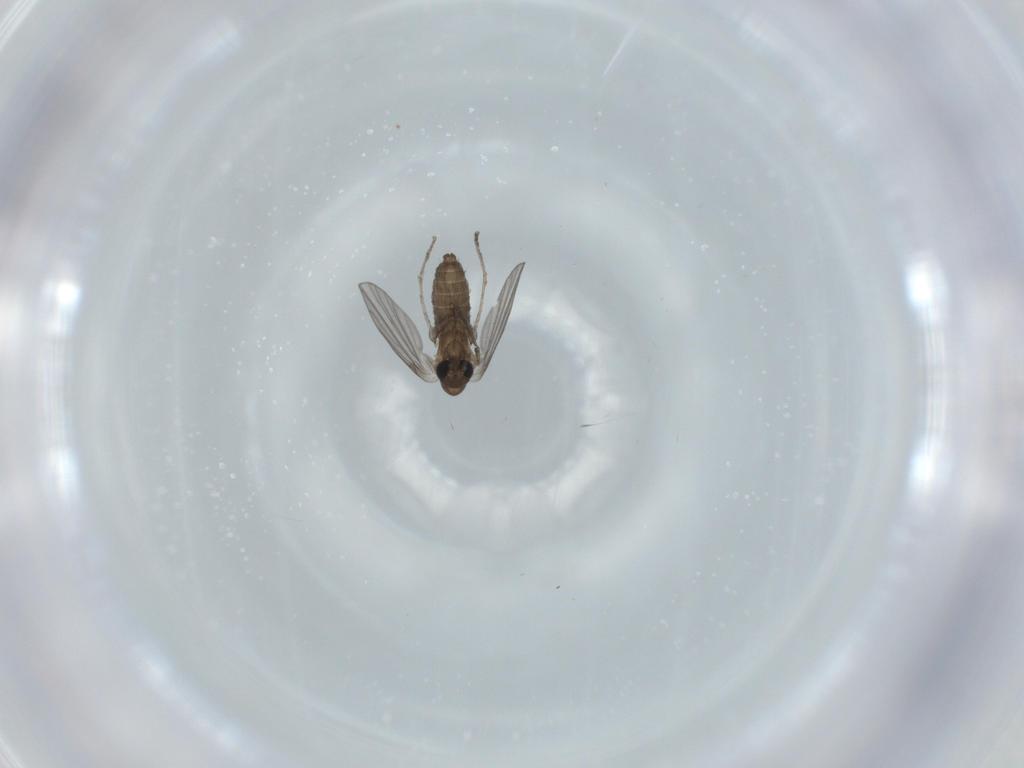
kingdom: Animalia
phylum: Arthropoda
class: Insecta
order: Diptera
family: Psychodidae
